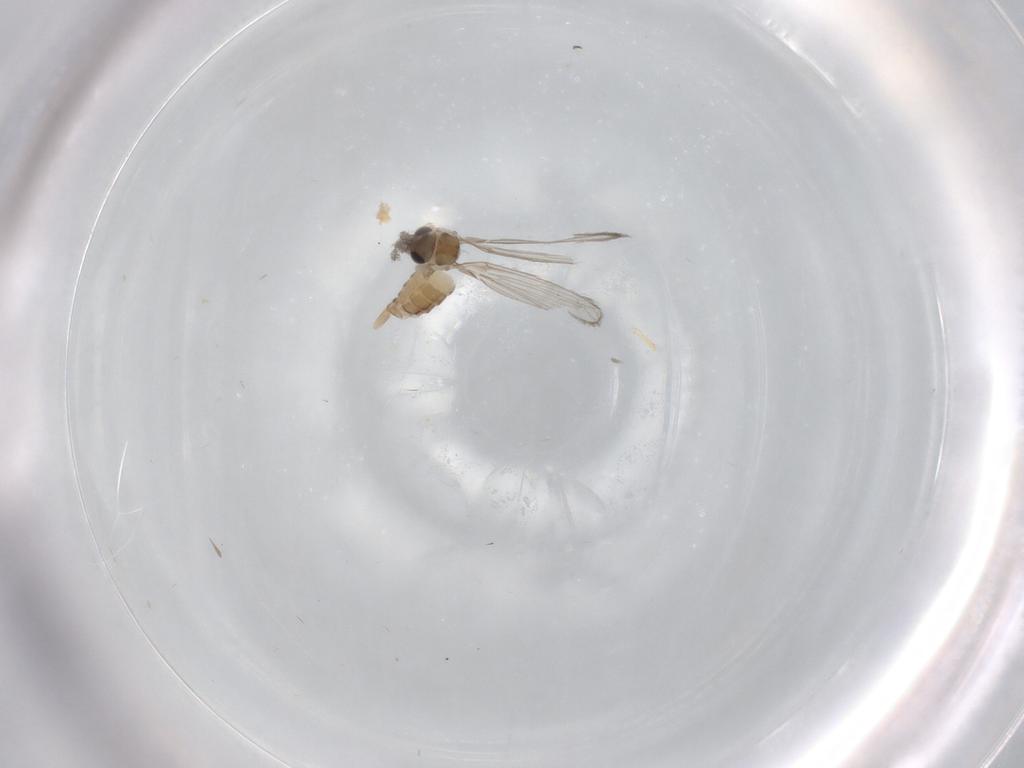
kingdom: Animalia
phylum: Arthropoda
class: Insecta
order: Diptera
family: Psychodidae
